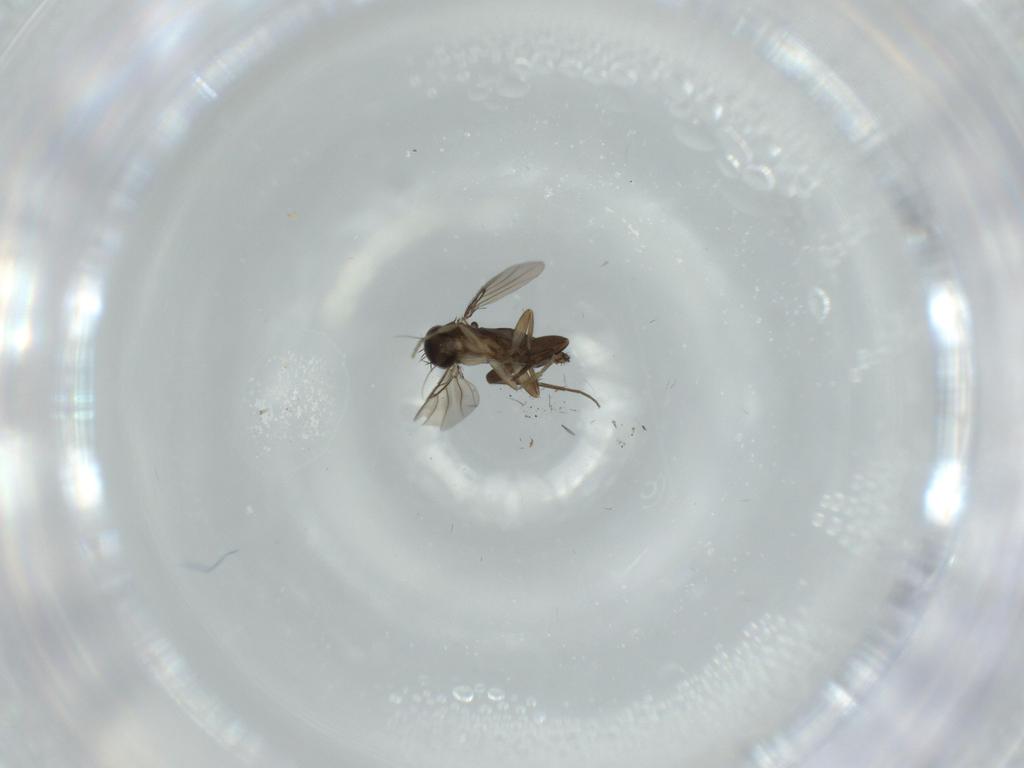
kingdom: Animalia
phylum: Arthropoda
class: Insecta
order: Diptera
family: Phoridae
